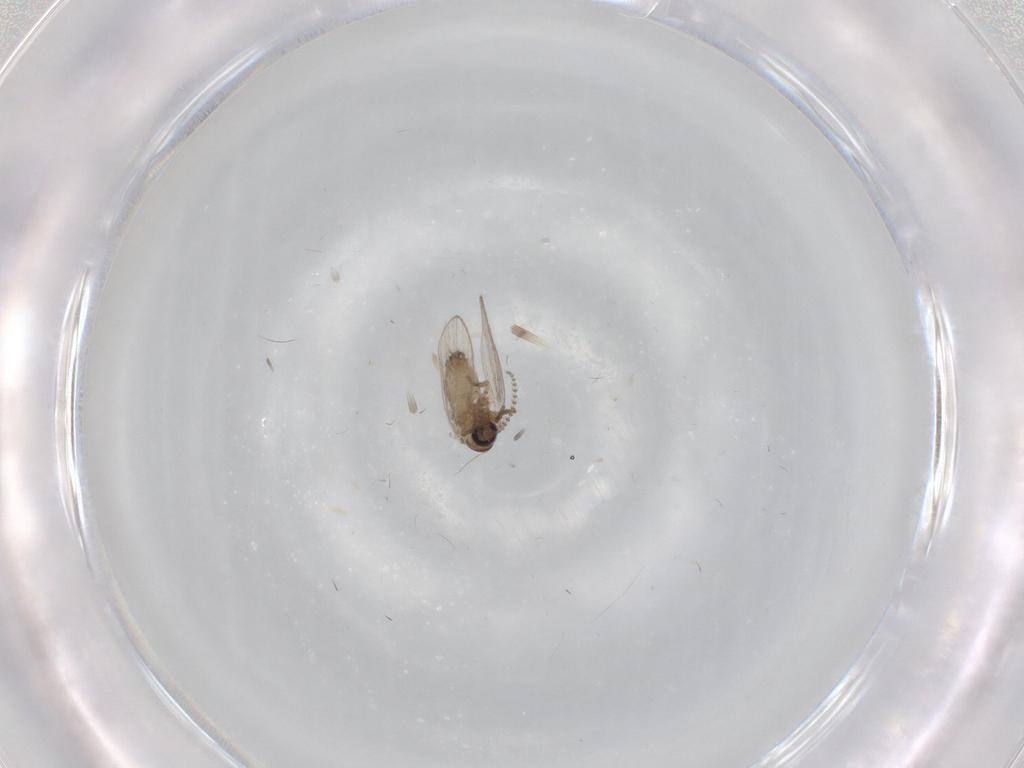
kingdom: Animalia
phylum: Arthropoda
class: Insecta
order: Diptera
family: Psychodidae
